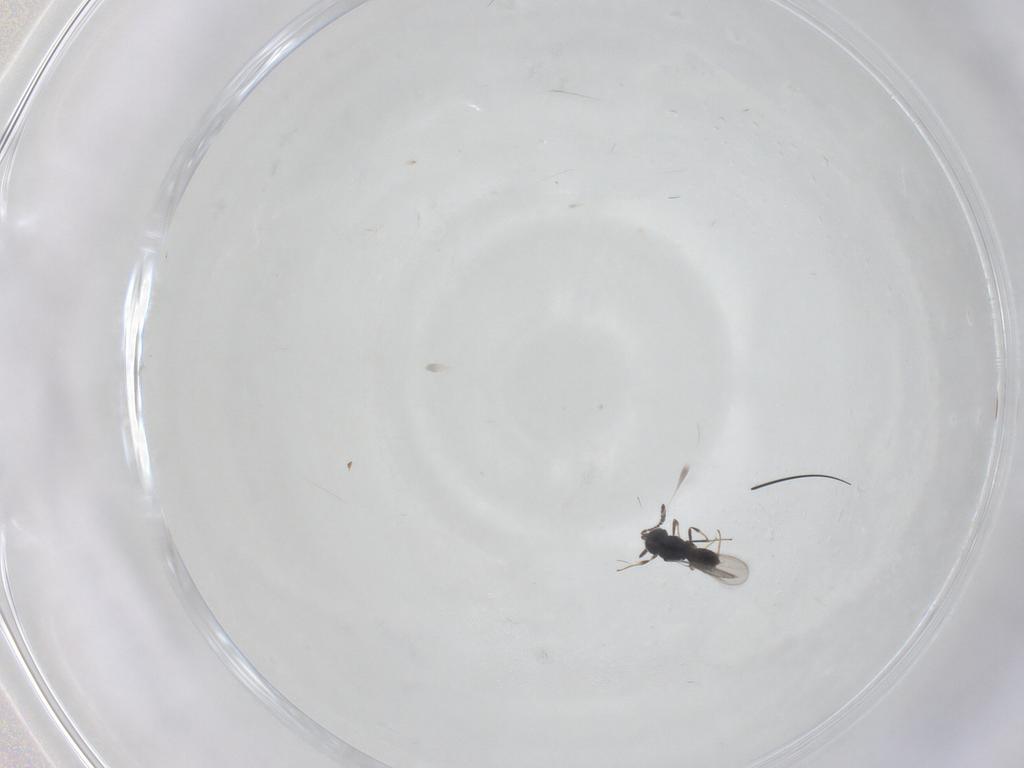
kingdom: Animalia
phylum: Arthropoda
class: Insecta
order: Hymenoptera
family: Scelionidae
